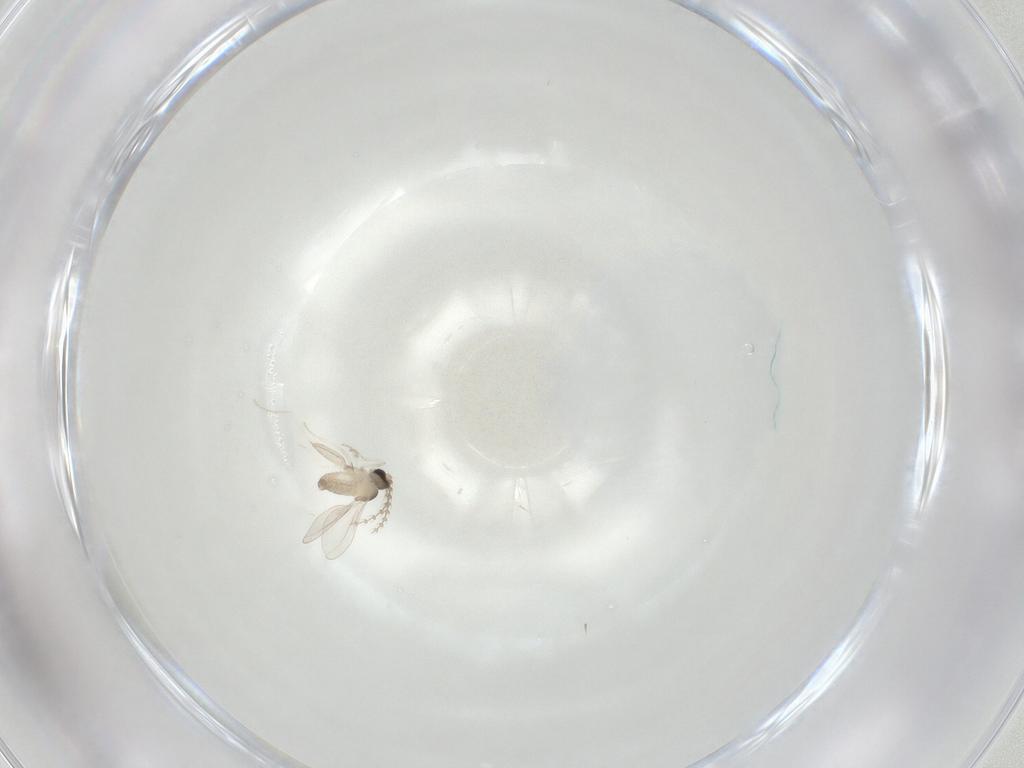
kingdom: Animalia
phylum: Arthropoda
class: Insecta
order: Diptera
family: Cecidomyiidae
